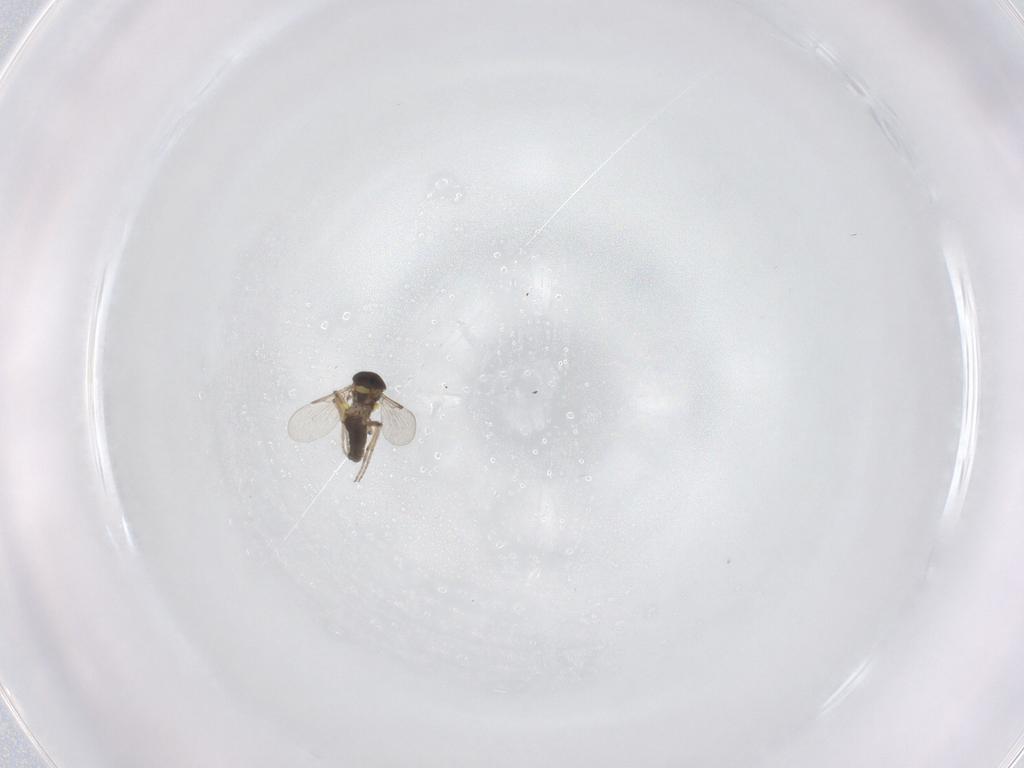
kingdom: Animalia
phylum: Arthropoda
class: Insecta
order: Diptera
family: Ceratopogonidae
